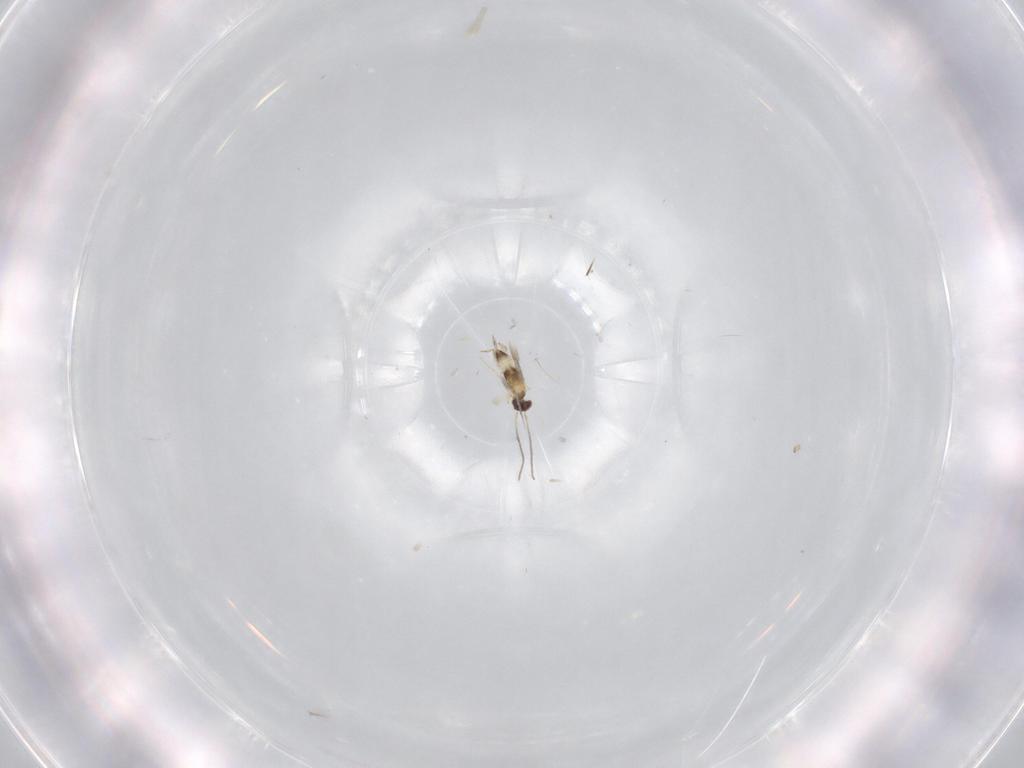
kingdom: Animalia
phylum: Arthropoda
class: Insecta
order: Hymenoptera
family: Mymaridae
